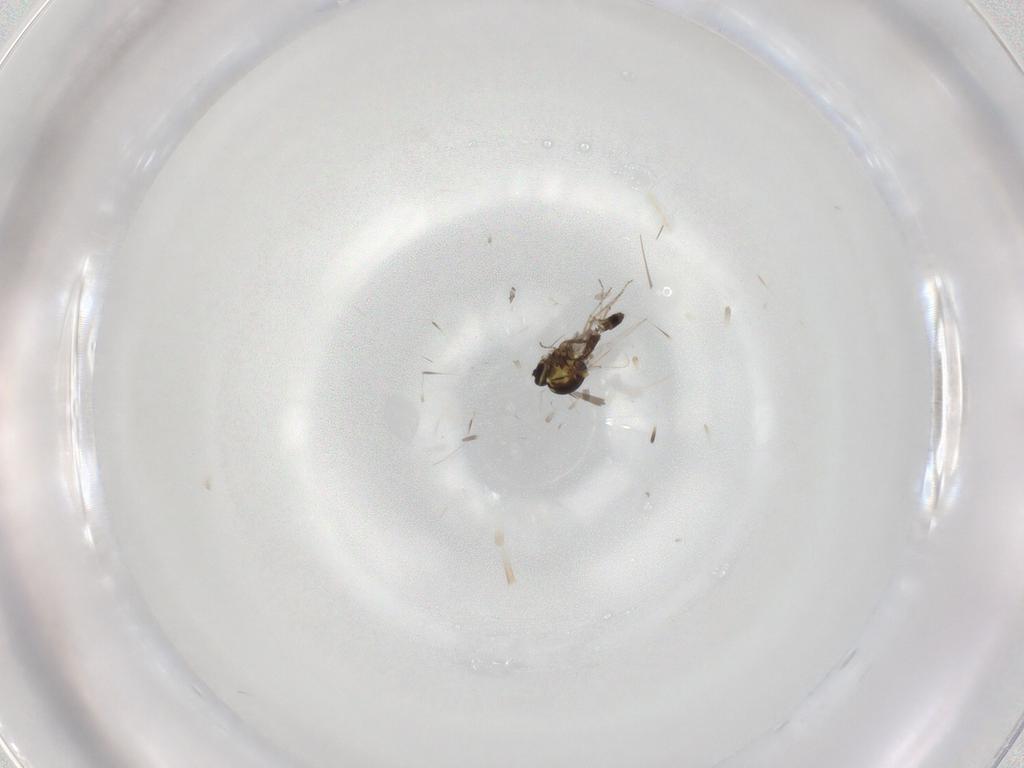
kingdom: Animalia
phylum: Arthropoda
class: Insecta
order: Diptera
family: Ceratopogonidae
